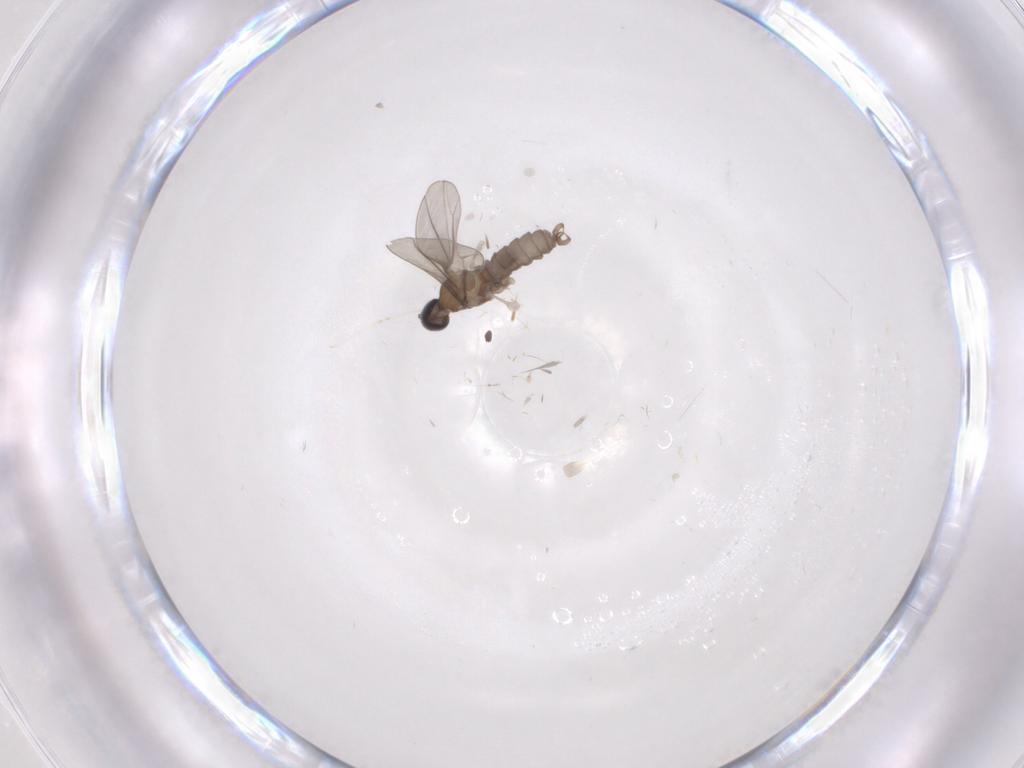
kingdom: Animalia
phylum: Arthropoda
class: Insecta
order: Diptera
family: Cecidomyiidae
